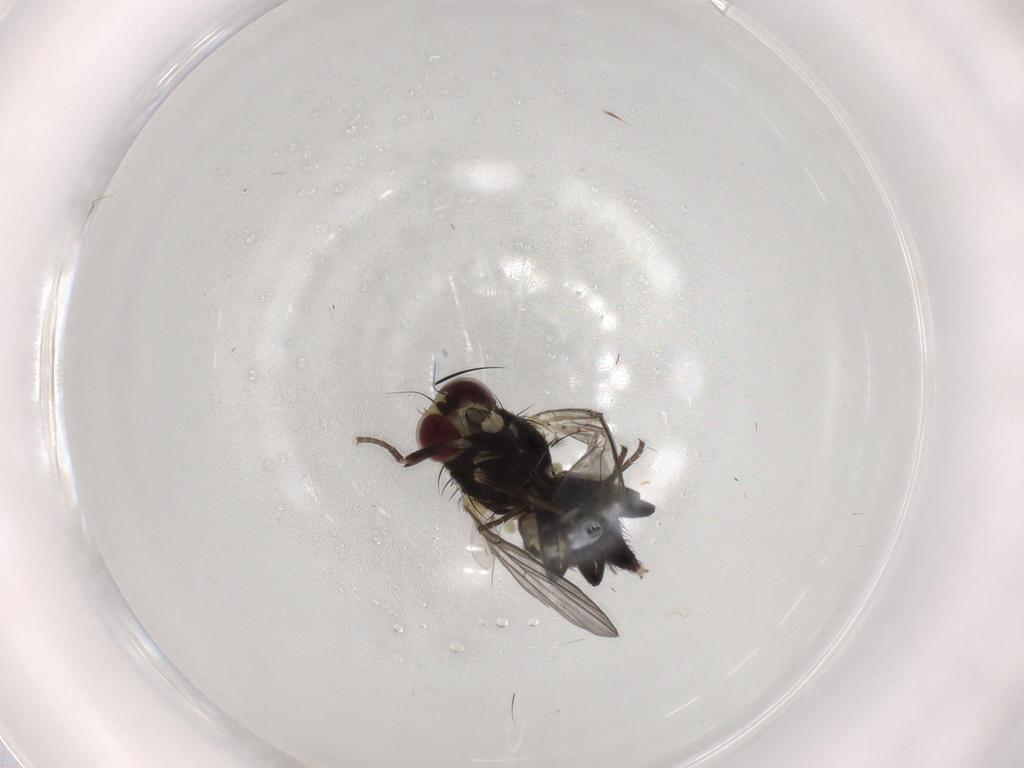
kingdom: Animalia
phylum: Arthropoda
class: Insecta
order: Diptera
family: Agromyzidae
